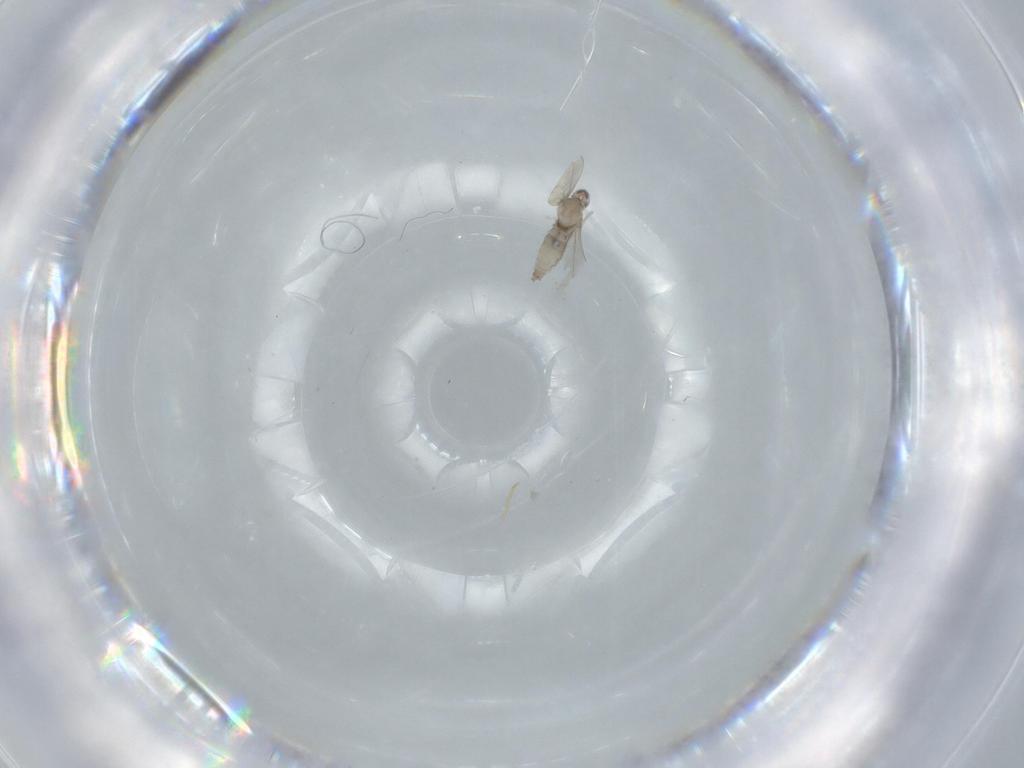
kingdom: Animalia
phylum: Arthropoda
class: Insecta
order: Diptera
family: Cecidomyiidae
